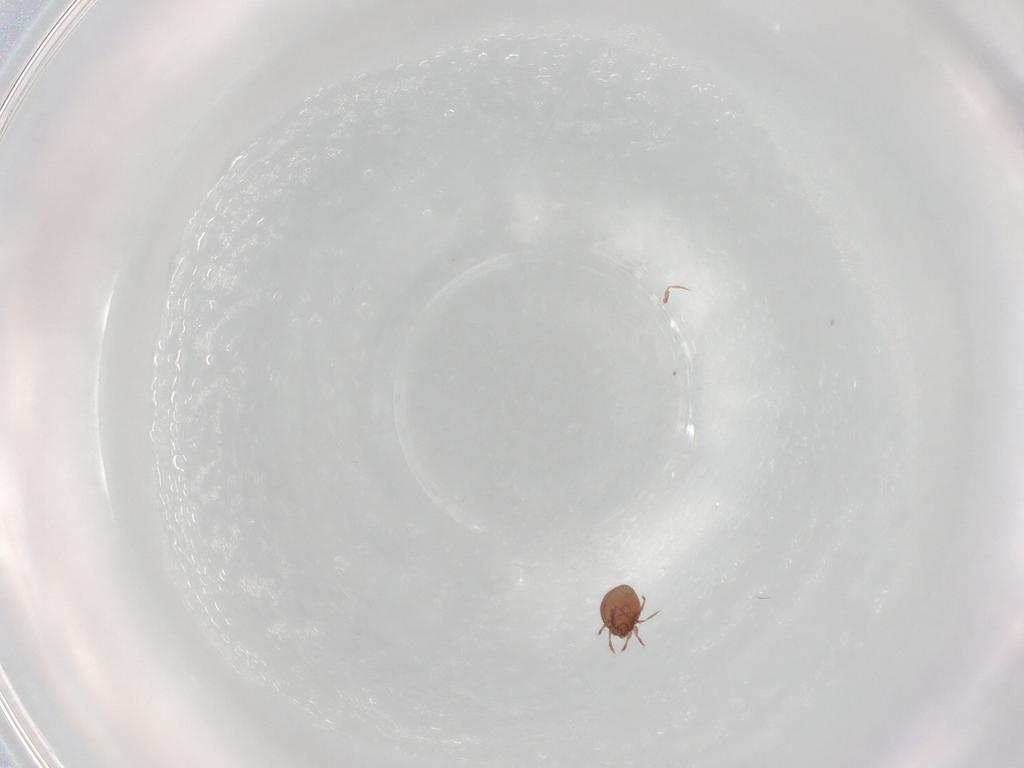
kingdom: Animalia
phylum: Arthropoda
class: Arachnida
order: Sarcoptiformes
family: Oribatulidae
